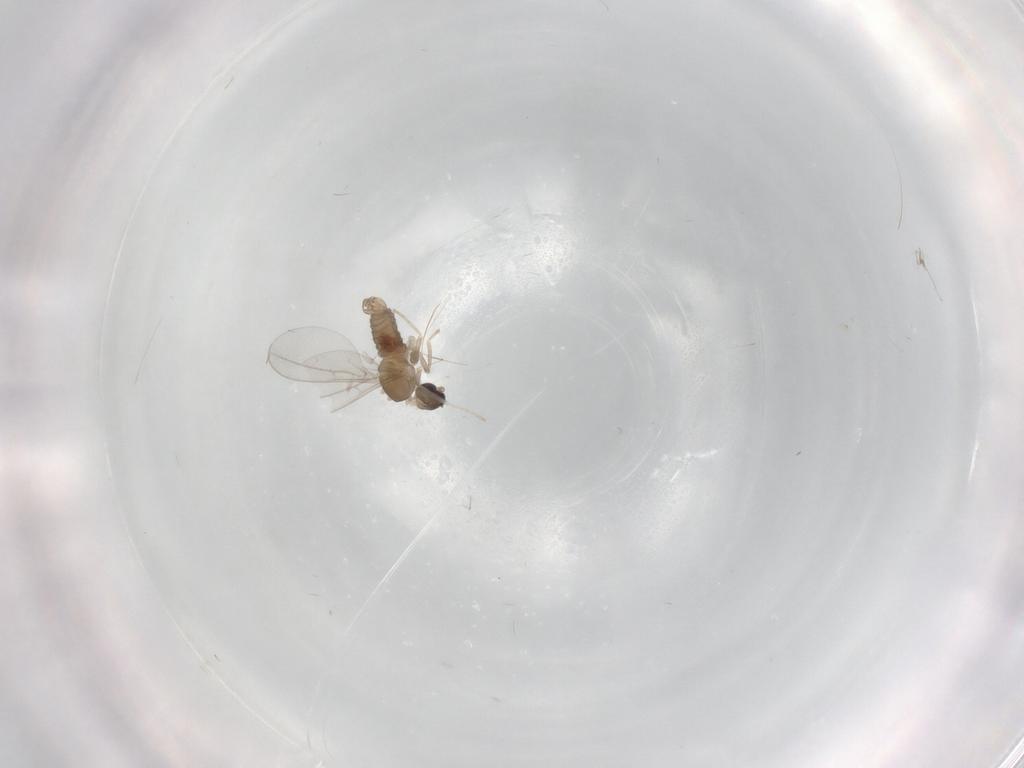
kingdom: Animalia
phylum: Arthropoda
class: Insecta
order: Diptera
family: Cecidomyiidae
